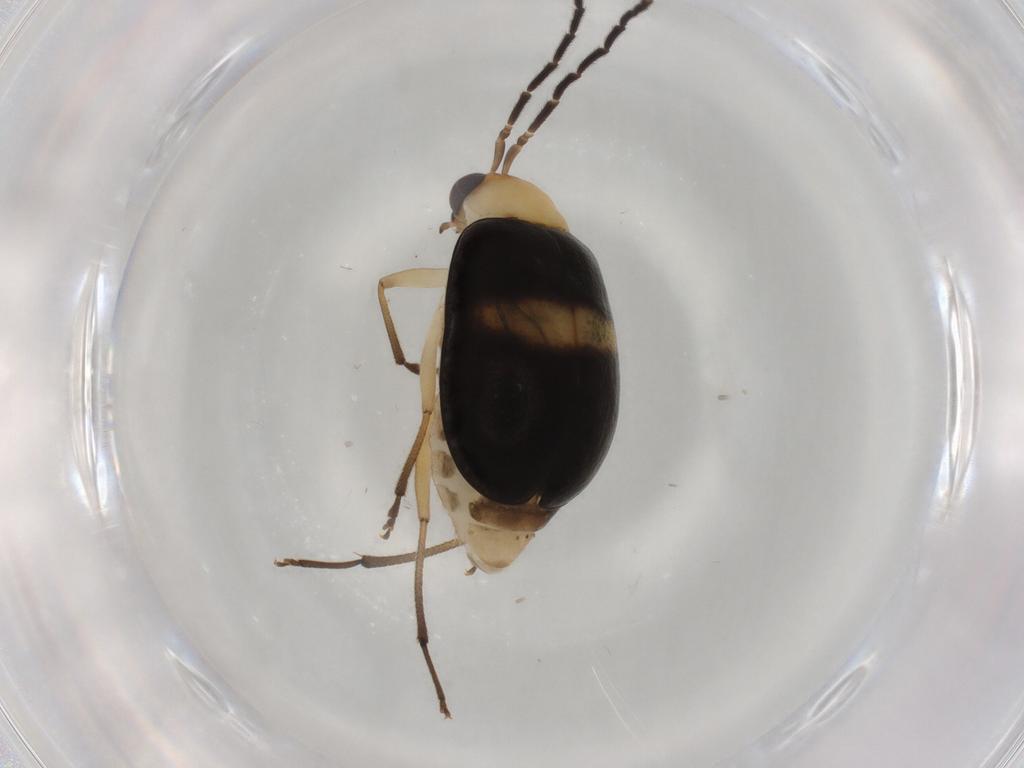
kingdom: Animalia
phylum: Arthropoda
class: Insecta
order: Coleoptera
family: Chrysomelidae
